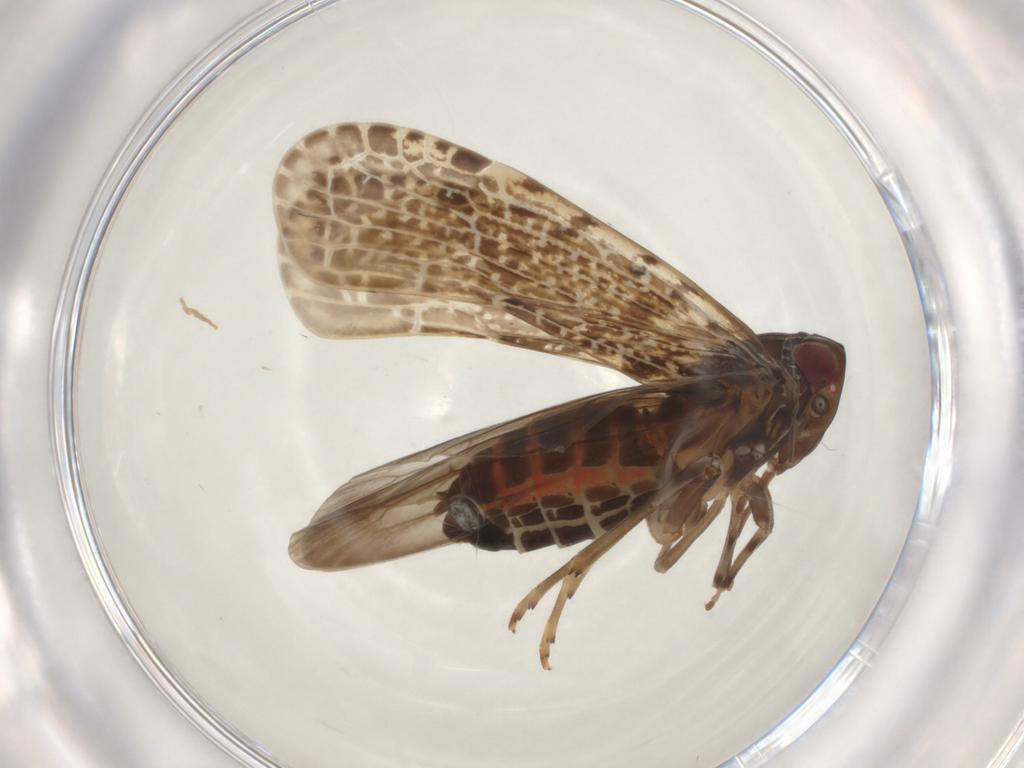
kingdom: Animalia
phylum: Arthropoda
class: Insecta
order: Hemiptera
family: Achilidae
